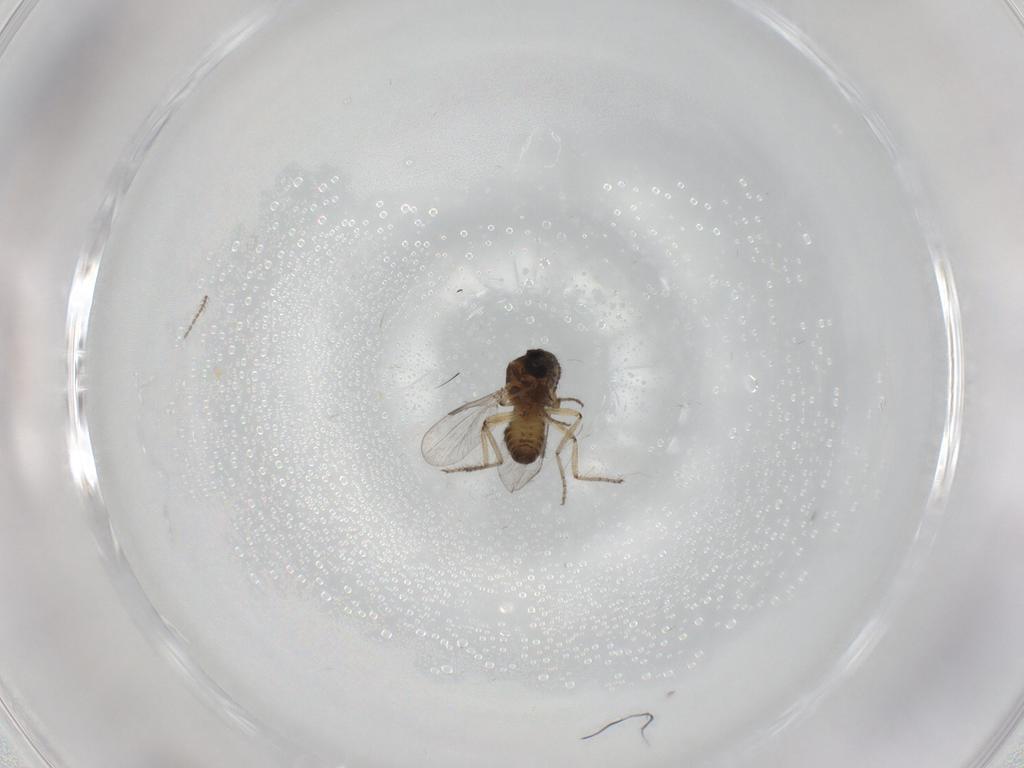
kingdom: Animalia
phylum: Arthropoda
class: Insecta
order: Diptera
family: Ceratopogonidae
